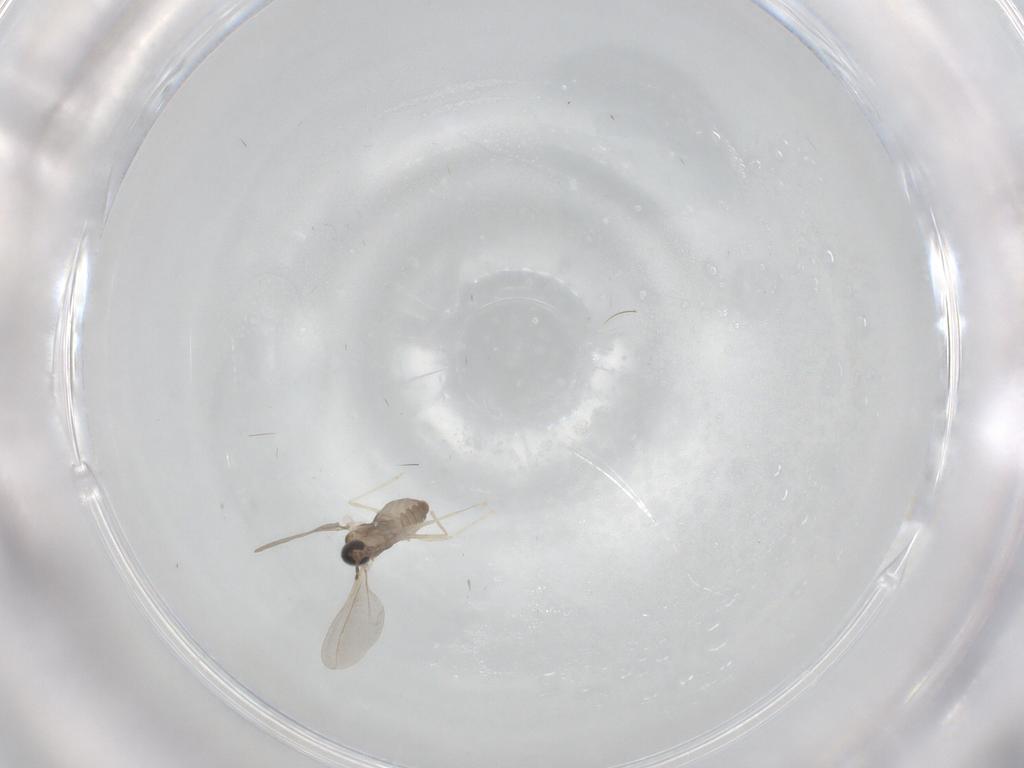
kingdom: Animalia
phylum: Arthropoda
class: Insecta
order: Diptera
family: Cecidomyiidae
